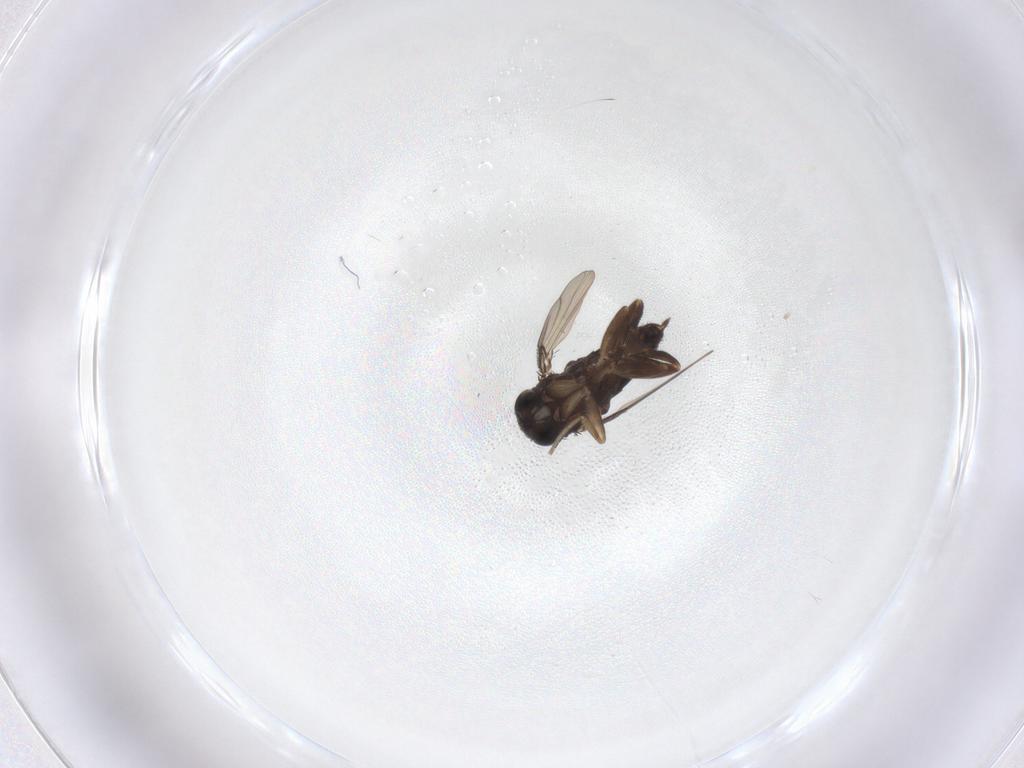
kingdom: Animalia
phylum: Arthropoda
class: Insecta
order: Diptera
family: Phoridae
